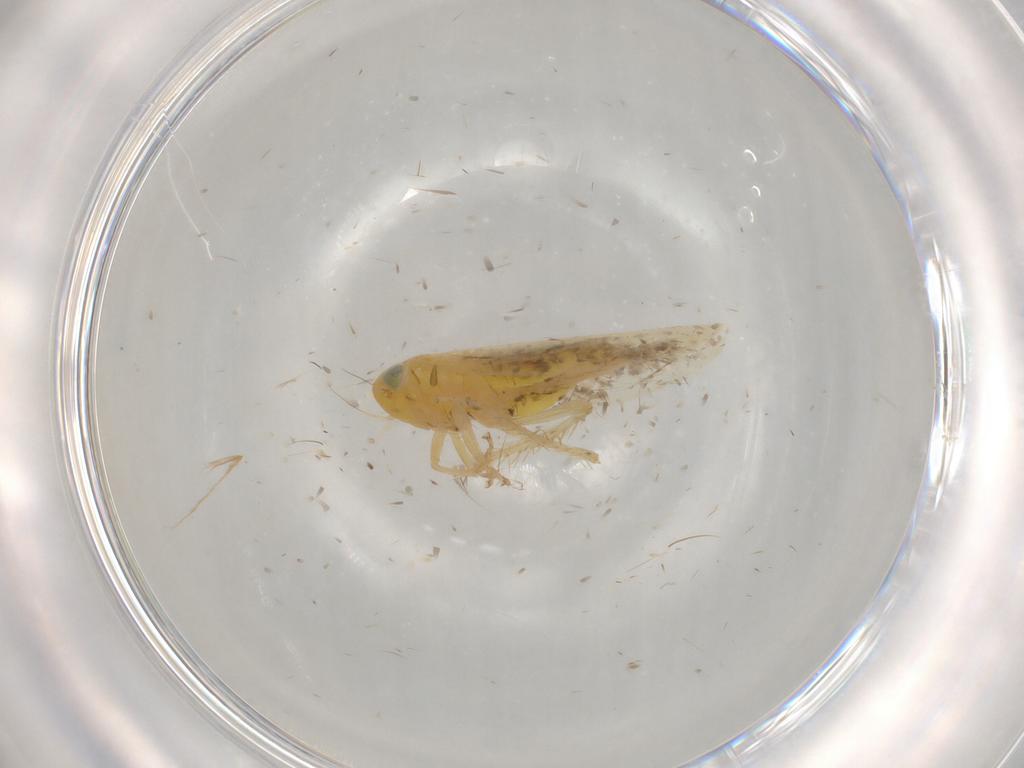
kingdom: Animalia
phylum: Arthropoda
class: Insecta
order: Hemiptera
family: Cicadellidae
